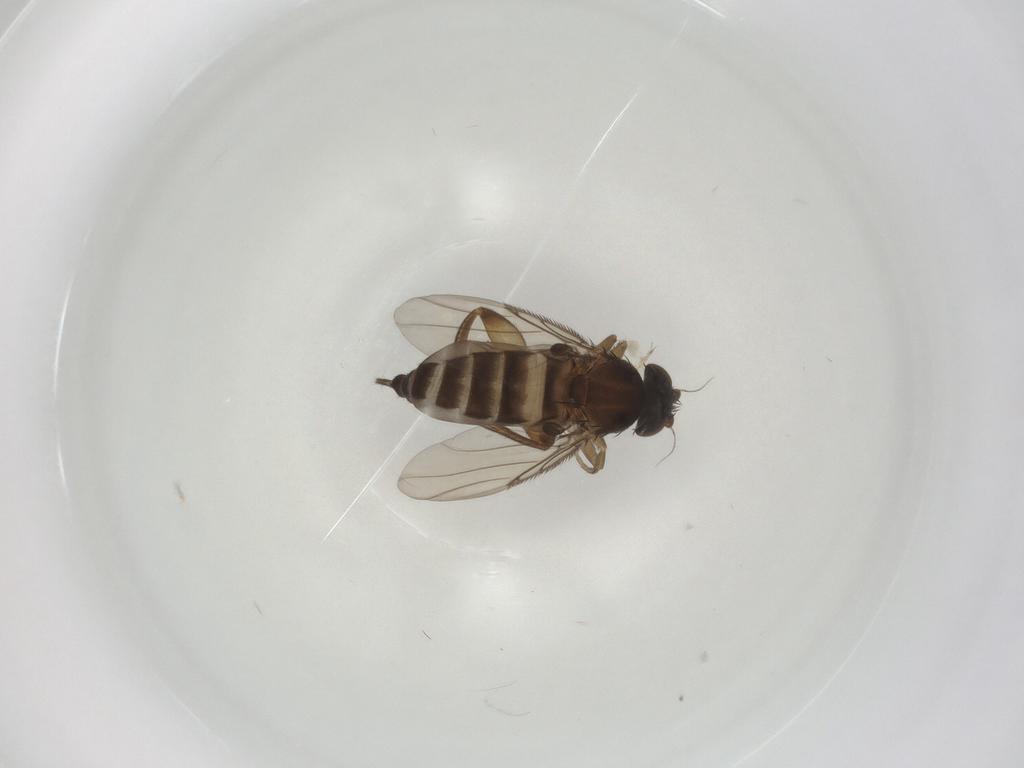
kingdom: Animalia
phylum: Arthropoda
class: Insecta
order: Diptera
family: Phoridae
